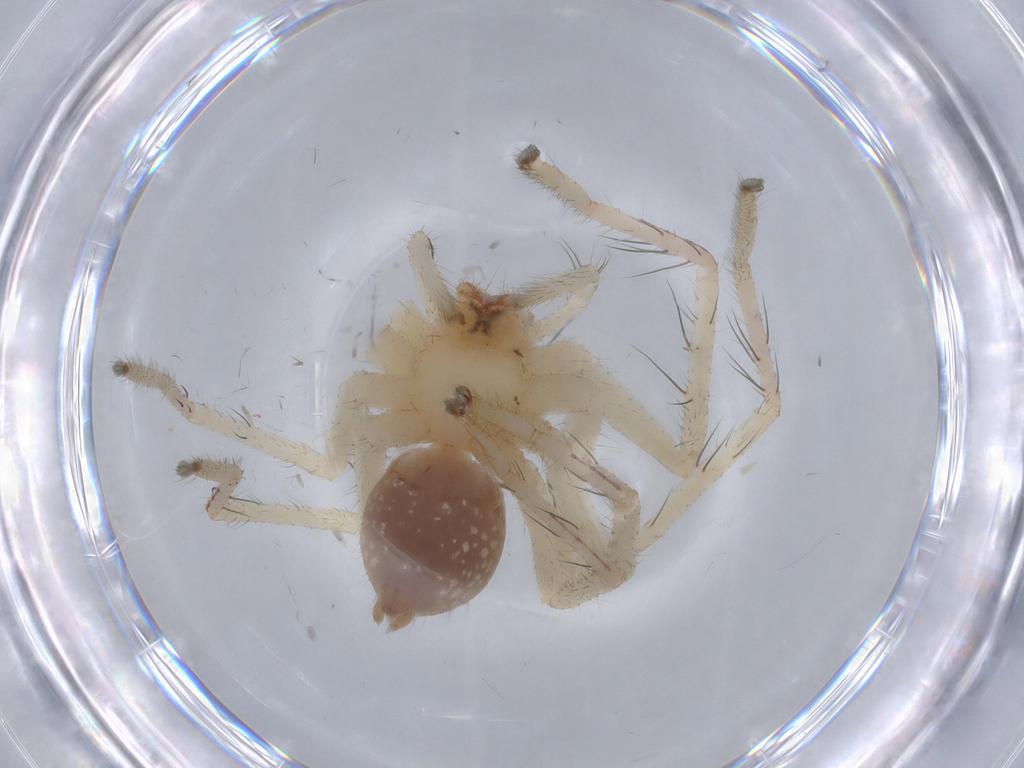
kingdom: Animalia
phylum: Arthropoda
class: Arachnida
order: Araneae
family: Sparassidae
